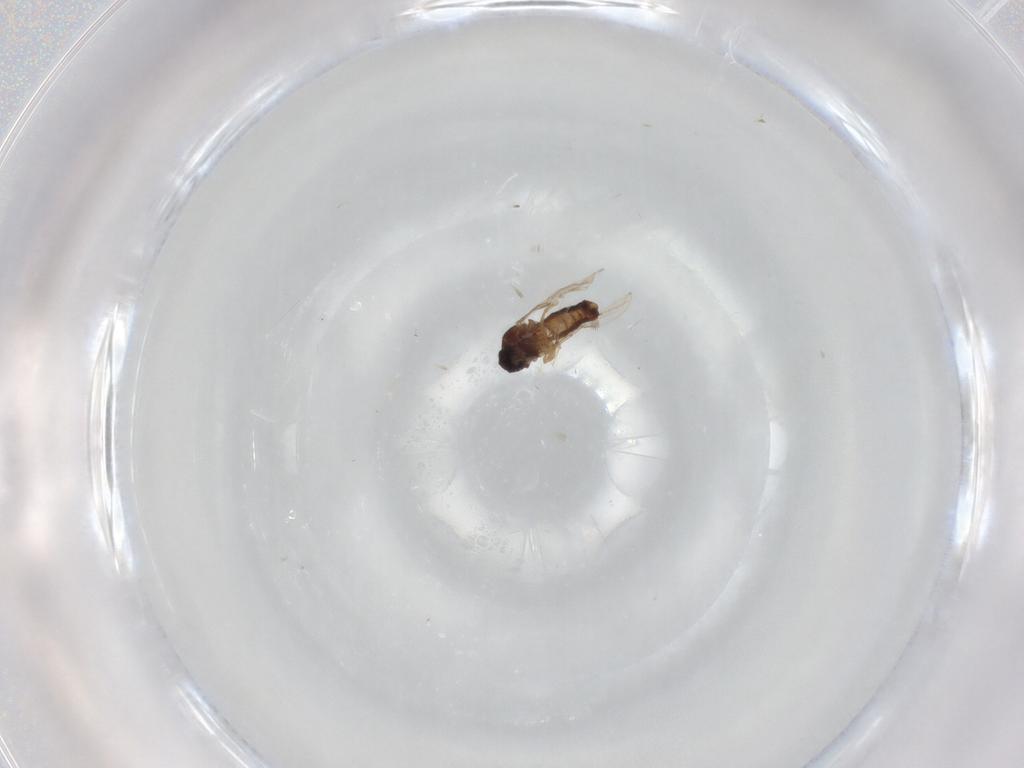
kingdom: Animalia
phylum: Arthropoda
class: Insecta
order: Diptera
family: Ceratopogonidae
